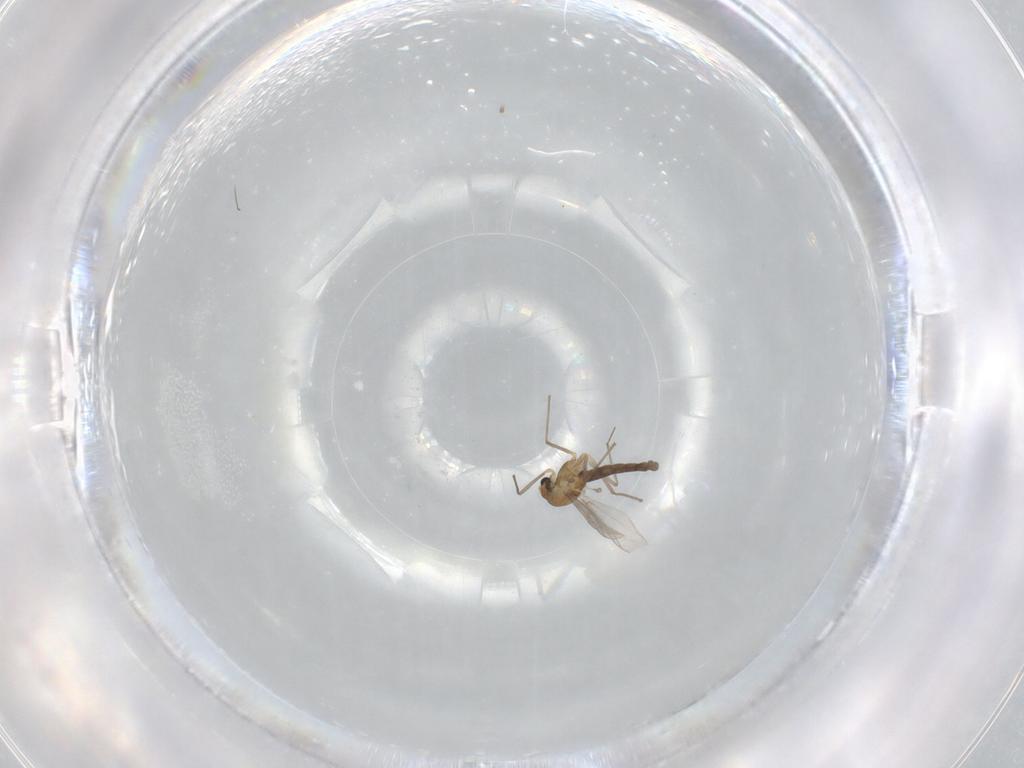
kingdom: Animalia
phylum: Arthropoda
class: Insecta
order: Diptera
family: Chironomidae
